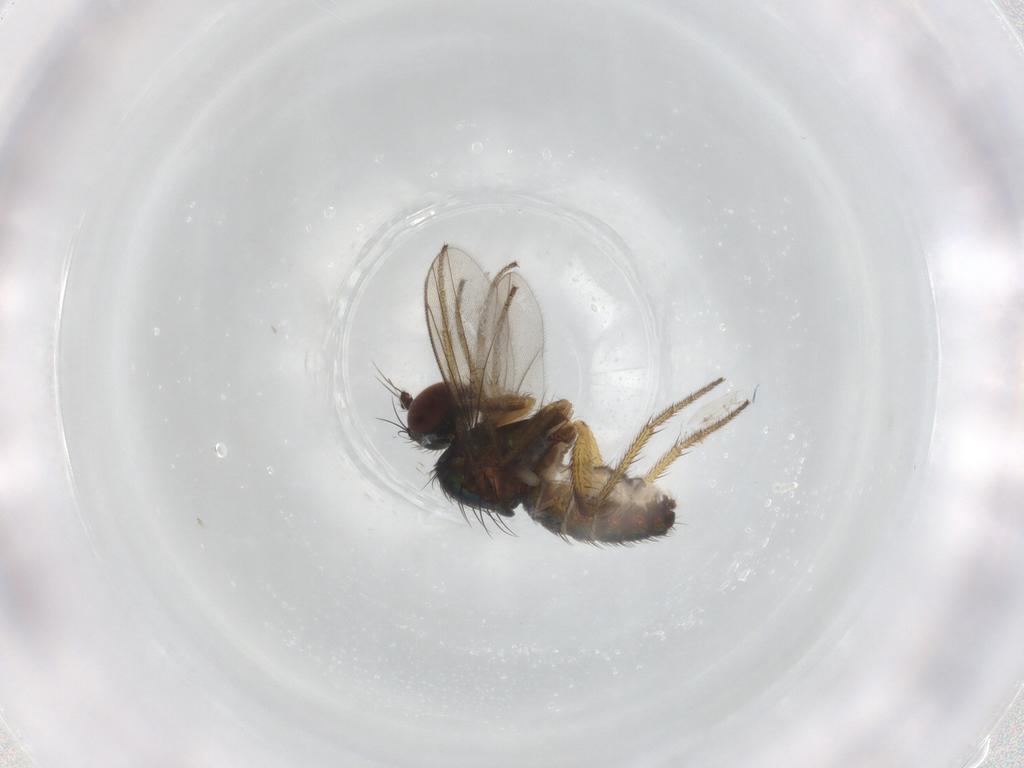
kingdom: Animalia
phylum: Arthropoda
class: Insecta
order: Diptera
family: Dolichopodidae
